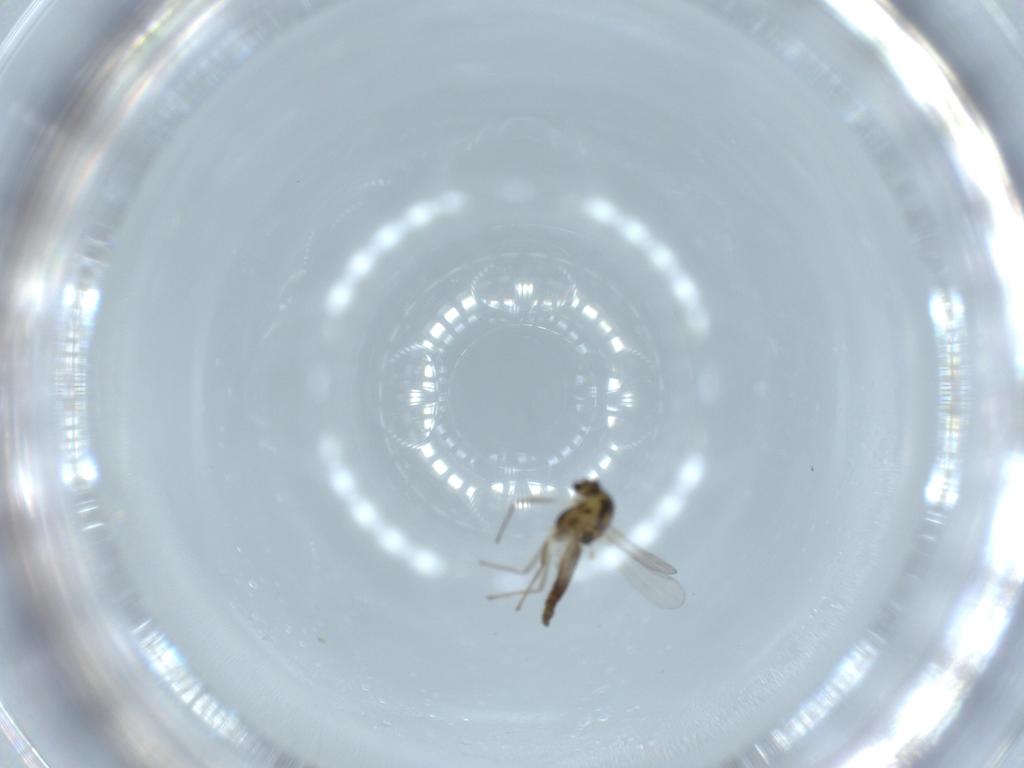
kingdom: Animalia
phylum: Arthropoda
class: Insecta
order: Diptera
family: Chironomidae
